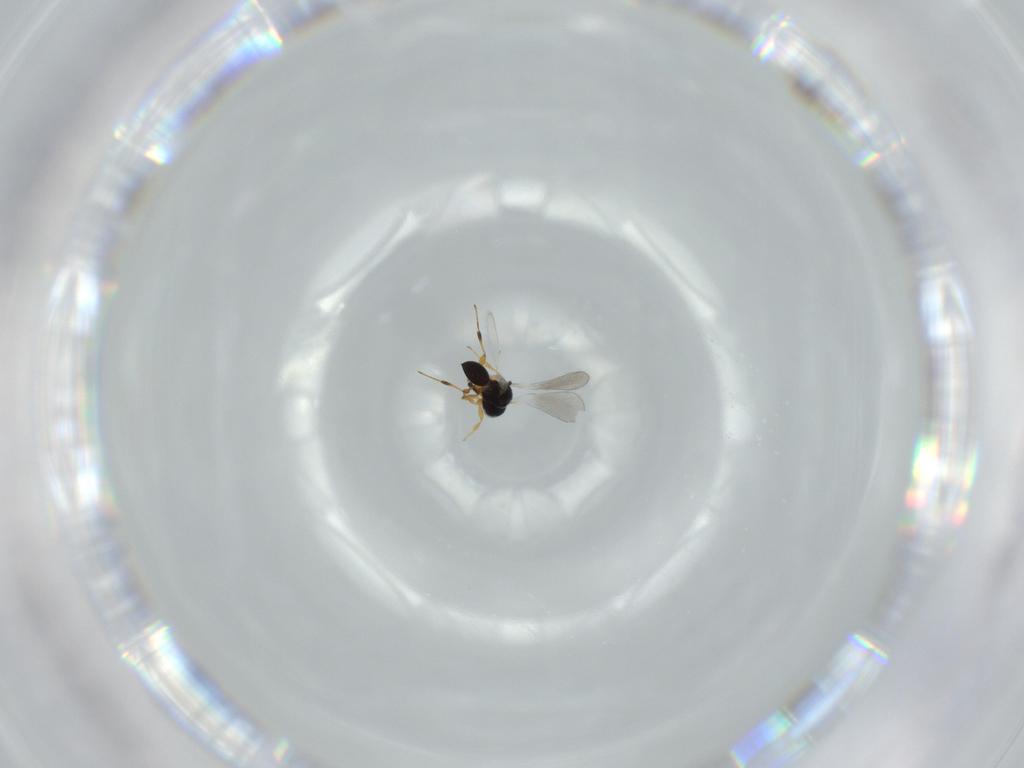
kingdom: Animalia
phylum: Arthropoda
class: Insecta
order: Hymenoptera
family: Platygastridae
